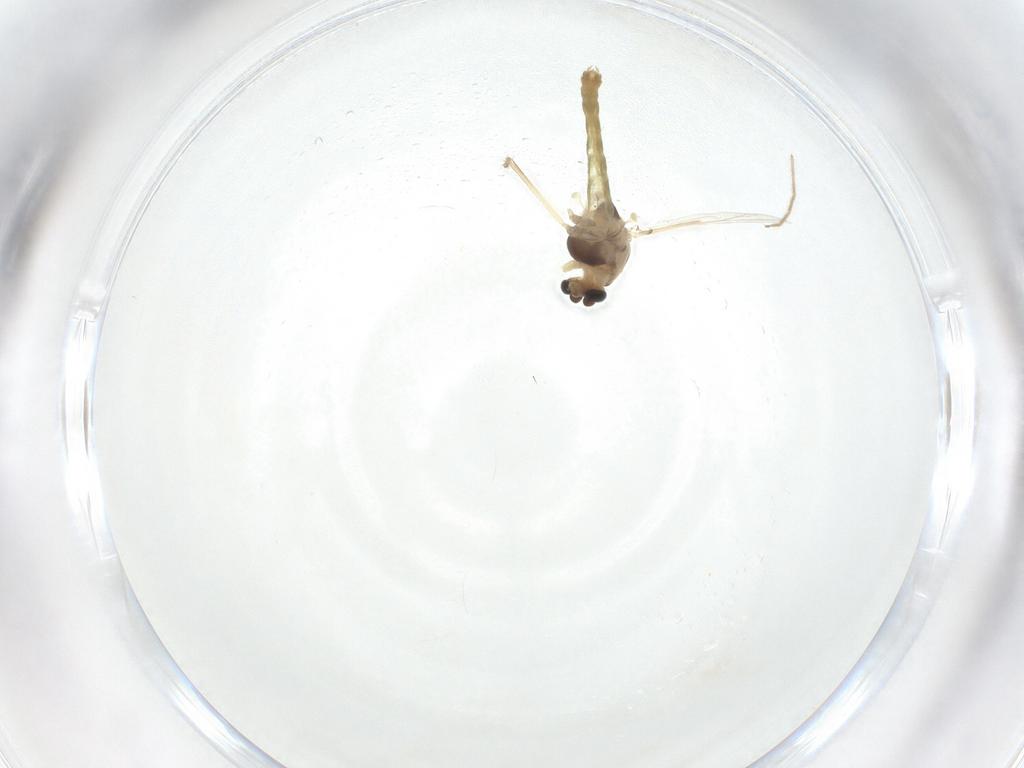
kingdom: Animalia
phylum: Arthropoda
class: Insecta
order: Diptera
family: Chironomidae
